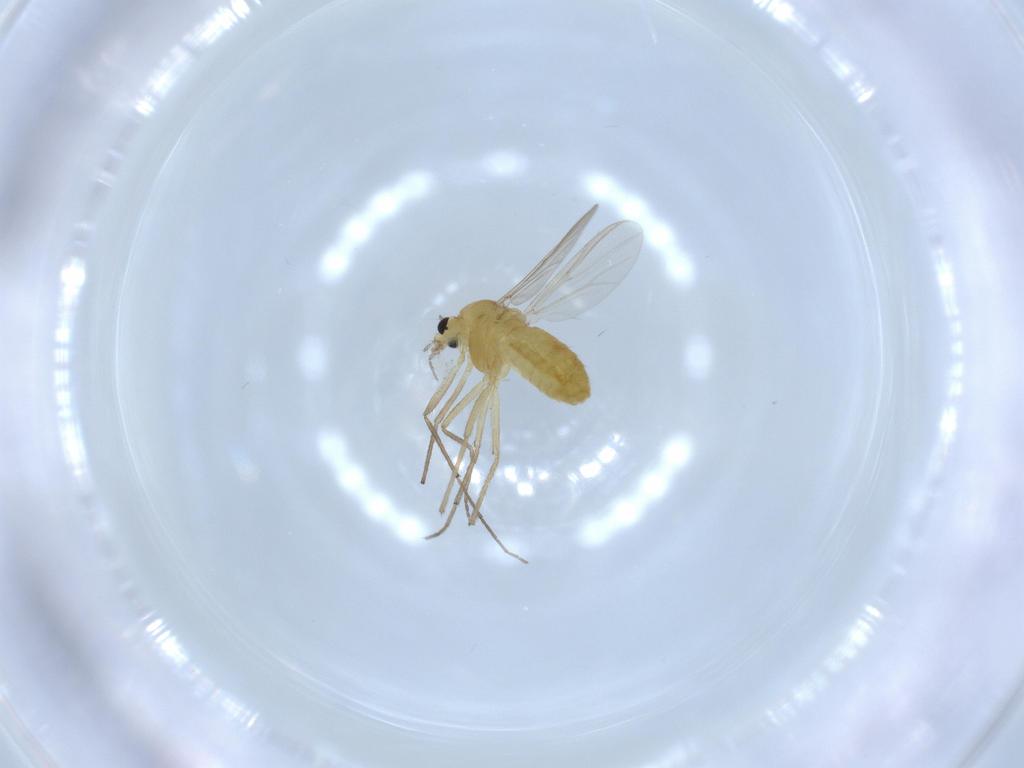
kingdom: Animalia
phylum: Arthropoda
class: Insecta
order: Diptera
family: Chironomidae
